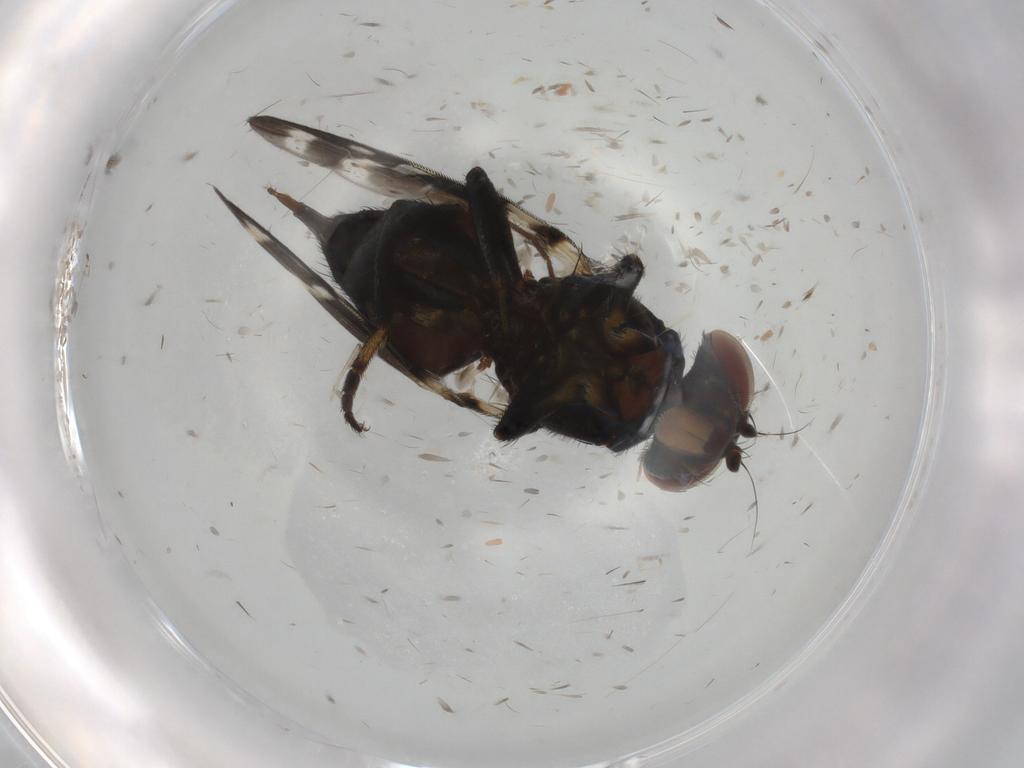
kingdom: Animalia
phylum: Arthropoda
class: Insecta
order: Diptera
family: Ulidiidae
